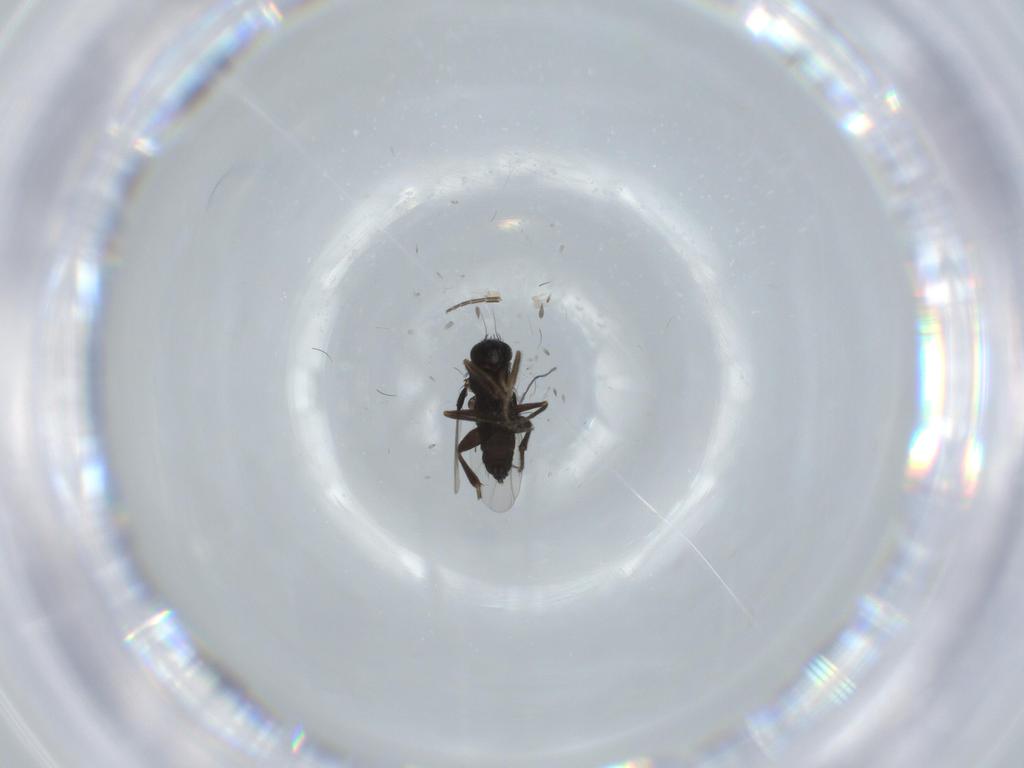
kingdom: Animalia
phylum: Arthropoda
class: Insecta
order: Diptera
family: Phoridae
